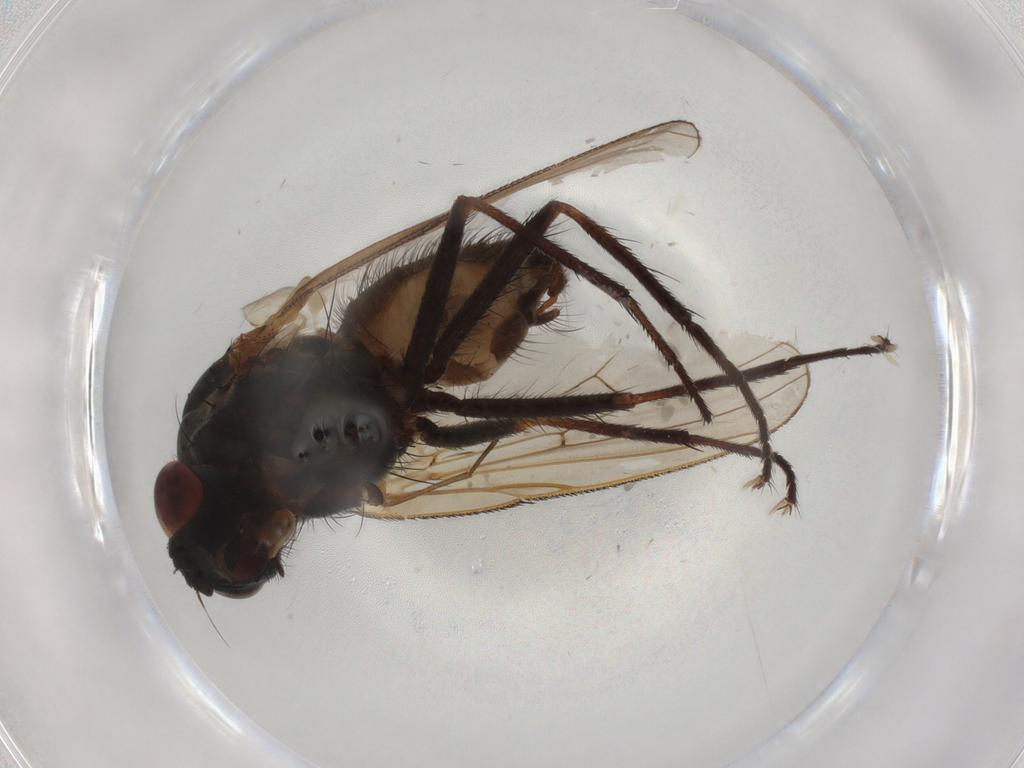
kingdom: Animalia
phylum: Arthropoda
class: Insecta
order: Diptera
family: Anthomyiidae
